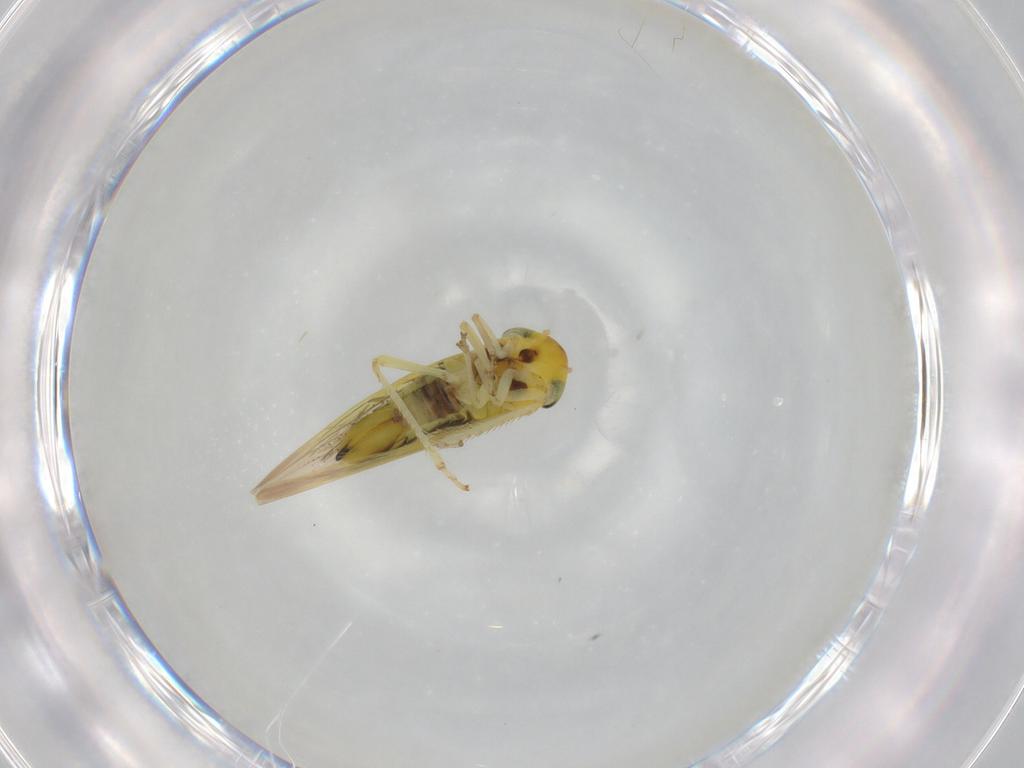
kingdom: Animalia
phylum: Arthropoda
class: Insecta
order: Hemiptera
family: Cicadellidae
